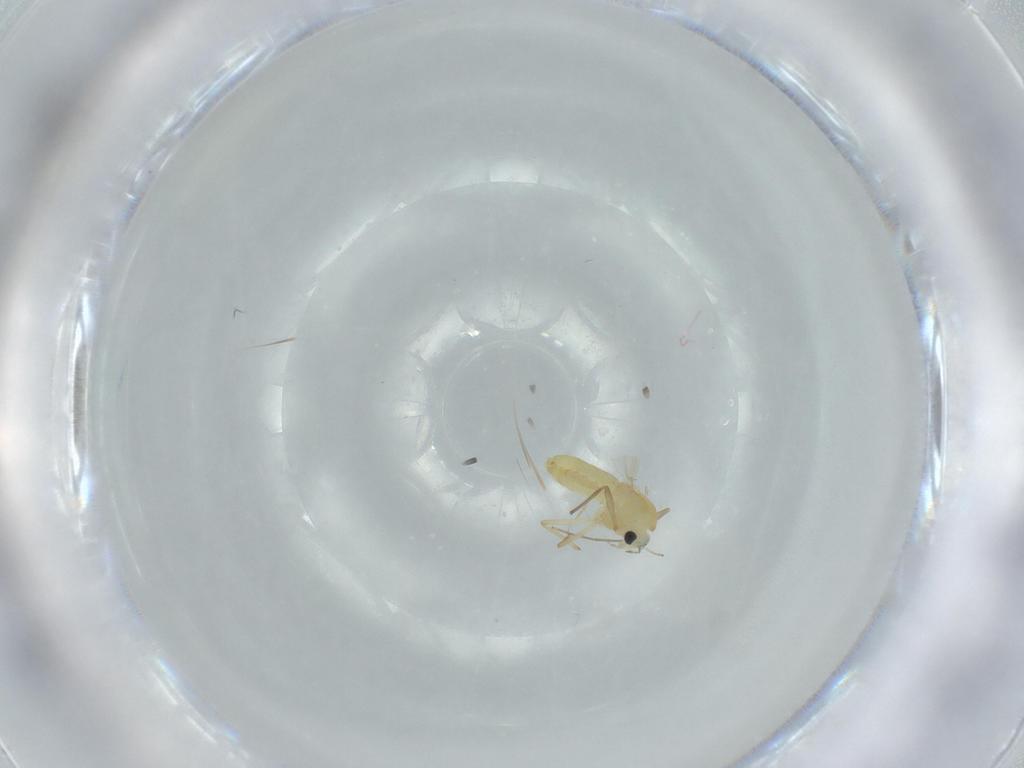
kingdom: Animalia
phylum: Arthropoda
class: Insecta
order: Diptera
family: Chironomidae
